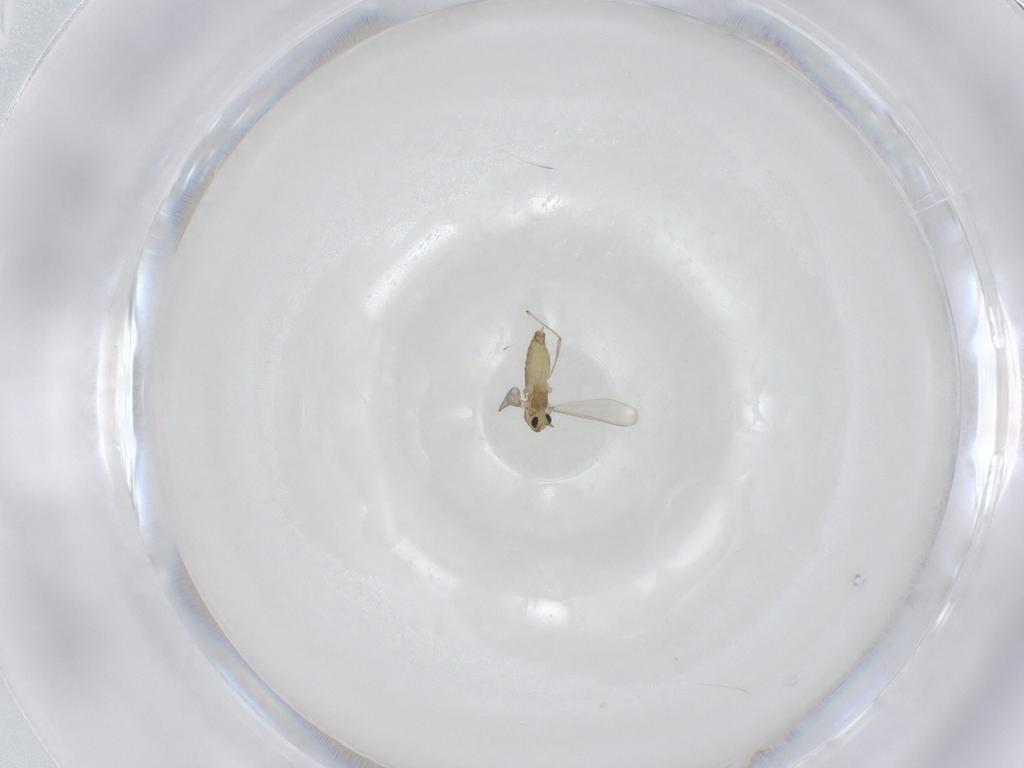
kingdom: Animalia
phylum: Arthropoda
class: Insecta
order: Diptera
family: Chironomidae
